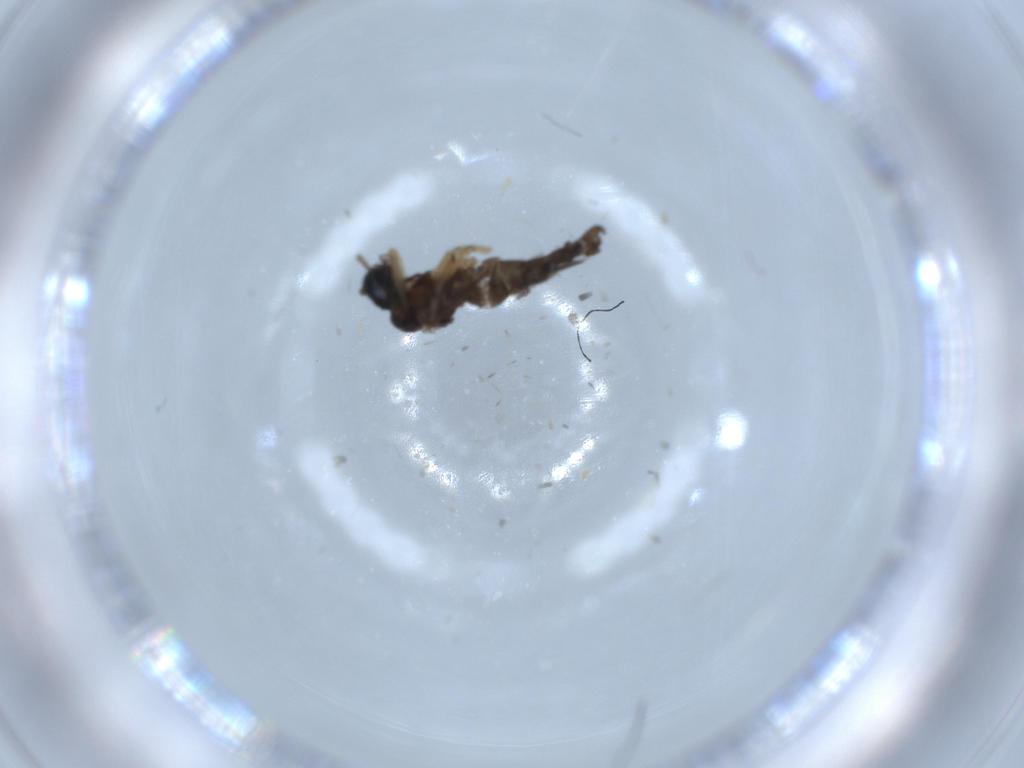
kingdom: Animalia
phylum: Arthropoda
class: Insecta
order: Diptera
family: Sciaridae
